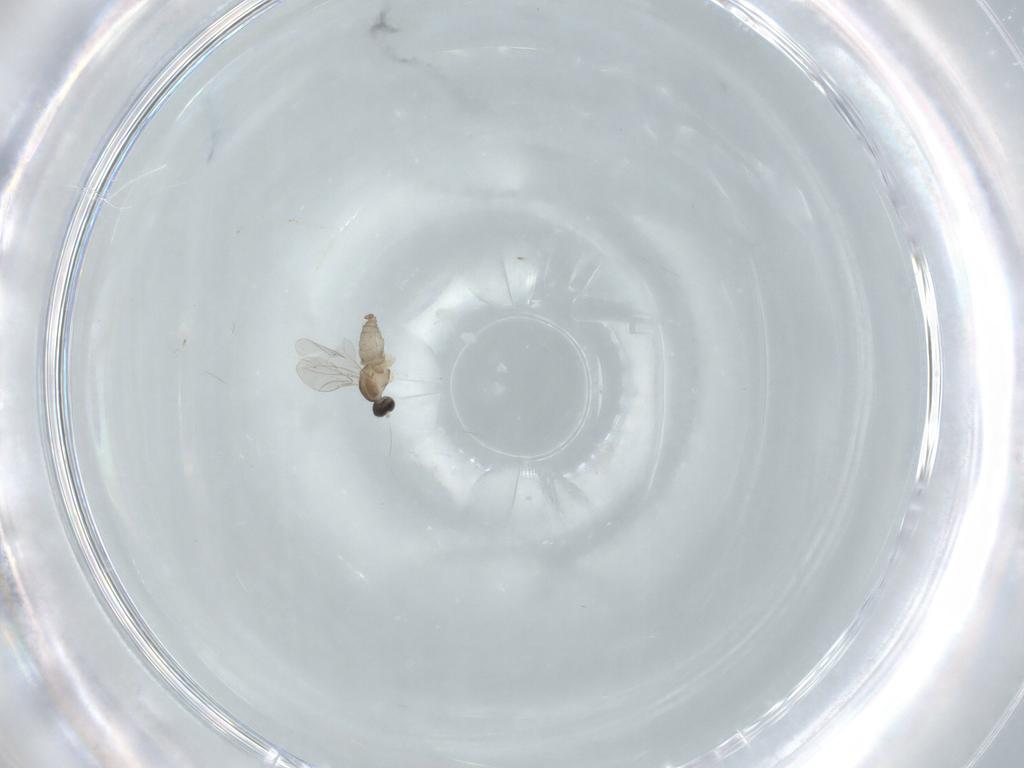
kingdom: Animalia
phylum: Arthropoda
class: Insecta
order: Diptera
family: Cecidomyiidae
